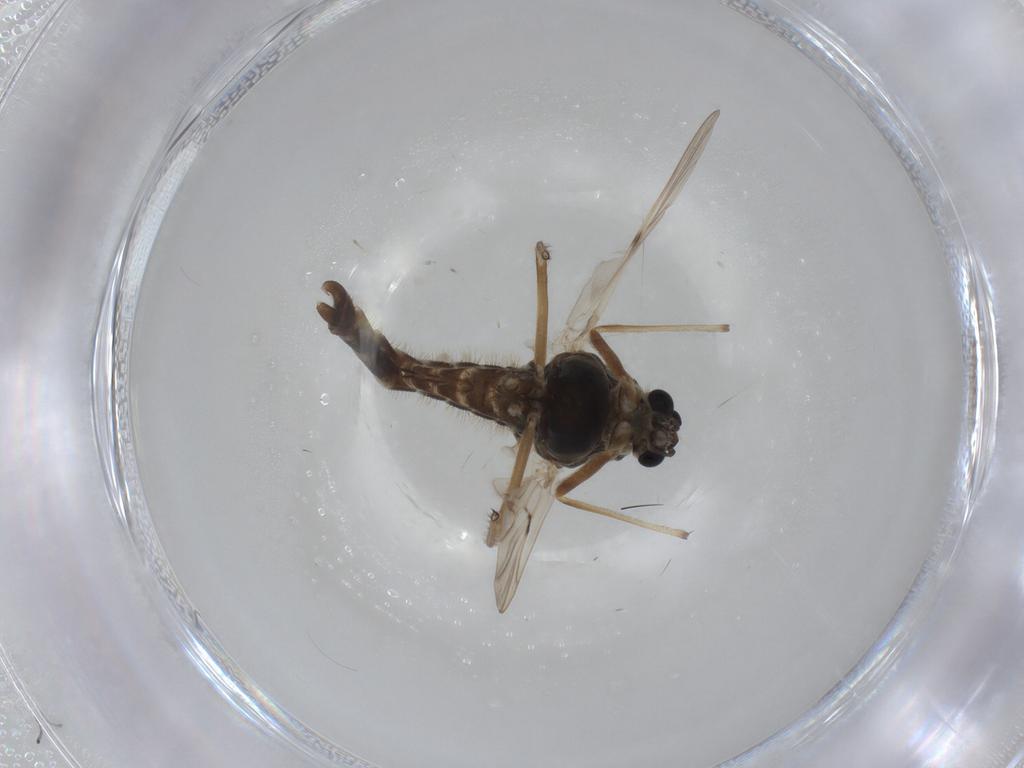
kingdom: Animalia
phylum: Arthropoda
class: Insecta
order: Diptera
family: Chironomidae
